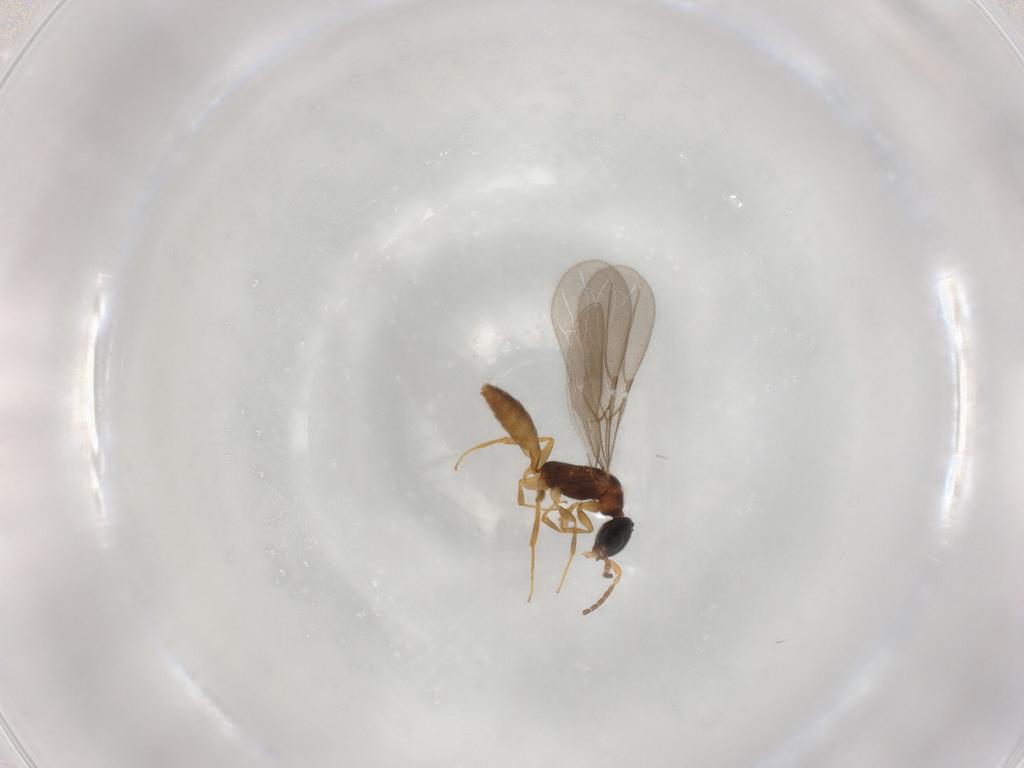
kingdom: Animalia
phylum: Arthropoda
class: Insecta
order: Hymenoptera
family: Bethylidae
